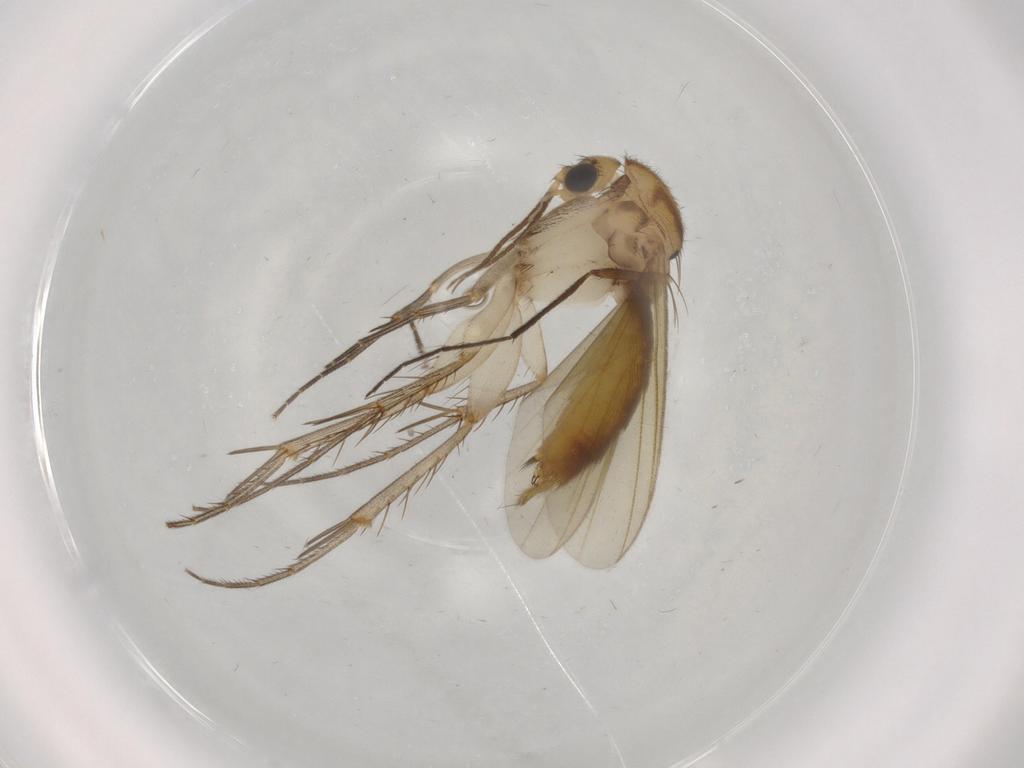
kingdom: Animalia
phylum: Arthropoda
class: Insecta
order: Diptera
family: Mycetophilidae
